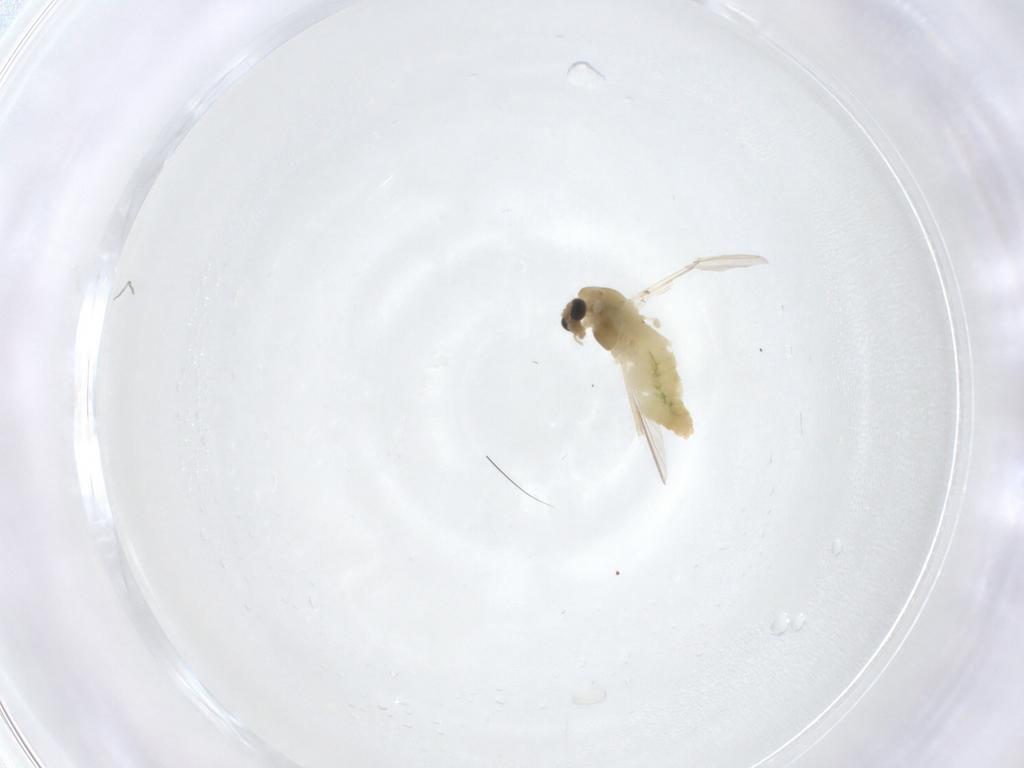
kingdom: Animalia
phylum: Arthropoda
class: Insecta
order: Diptera
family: Chironomidae
